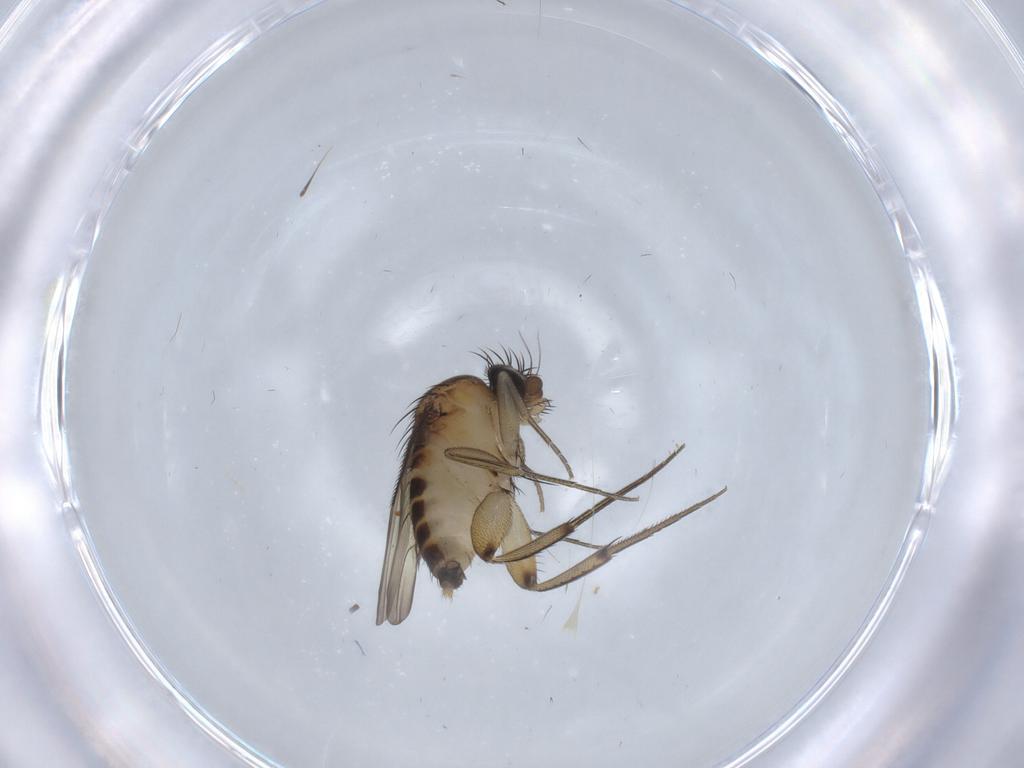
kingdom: Animalia
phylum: Arthropoda
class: Insecta
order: Diptera
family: Phoridae
